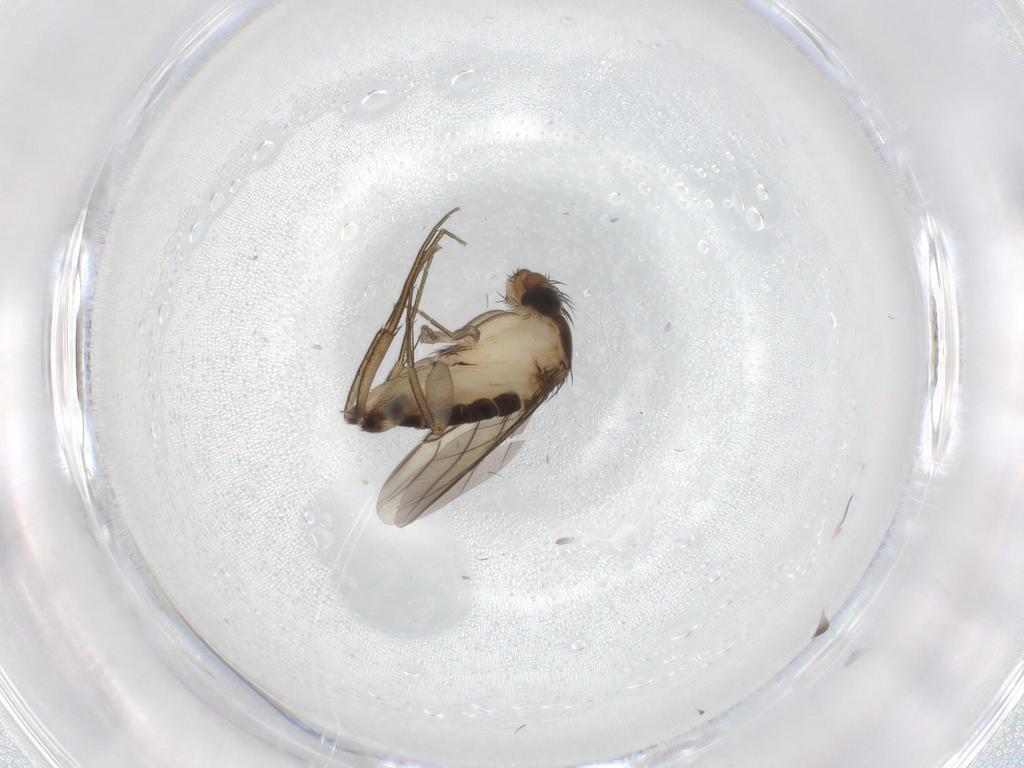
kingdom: Animalia
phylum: Arthropoda
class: Insecta
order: Diptera
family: Phoridae
